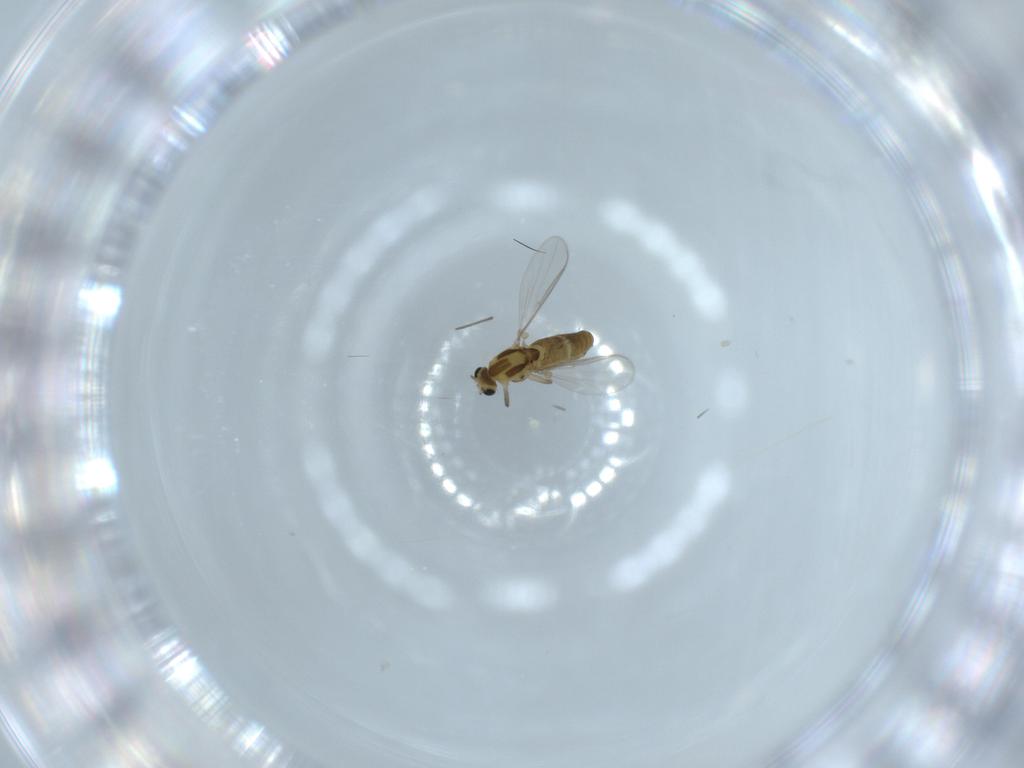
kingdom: Animalia
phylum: Arthropoda
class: Insecta
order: Diptera
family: Chironomidae
